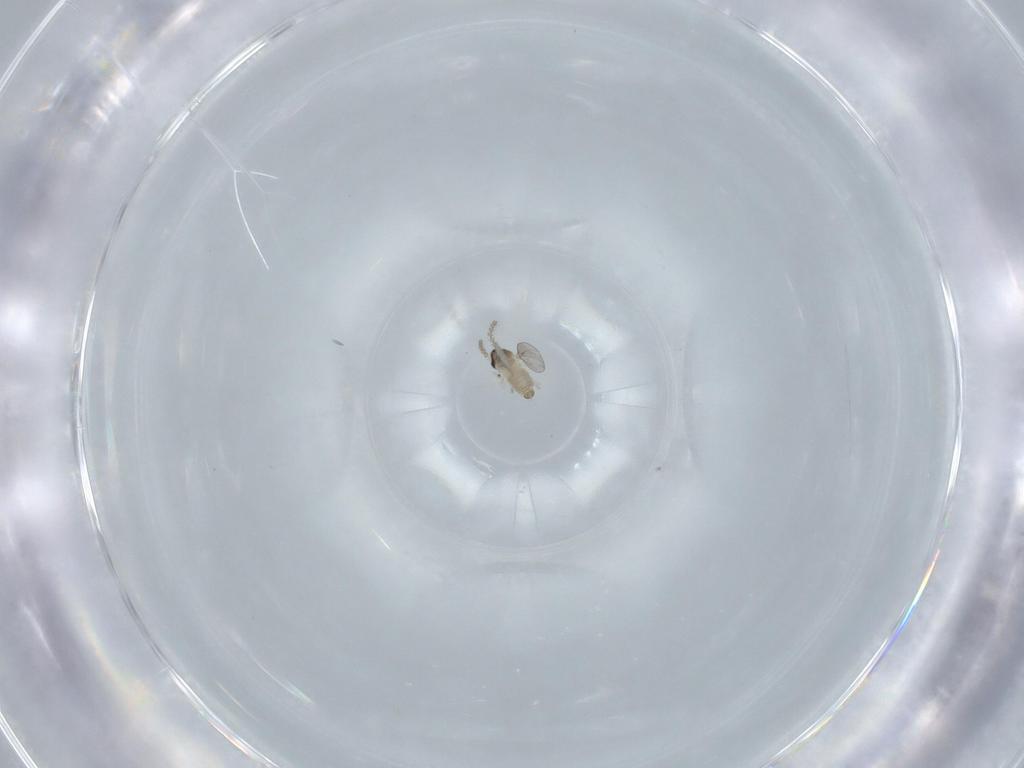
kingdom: Animalia
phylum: Arthropoda
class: Insecta
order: Diptera
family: Cecidomyiidae
